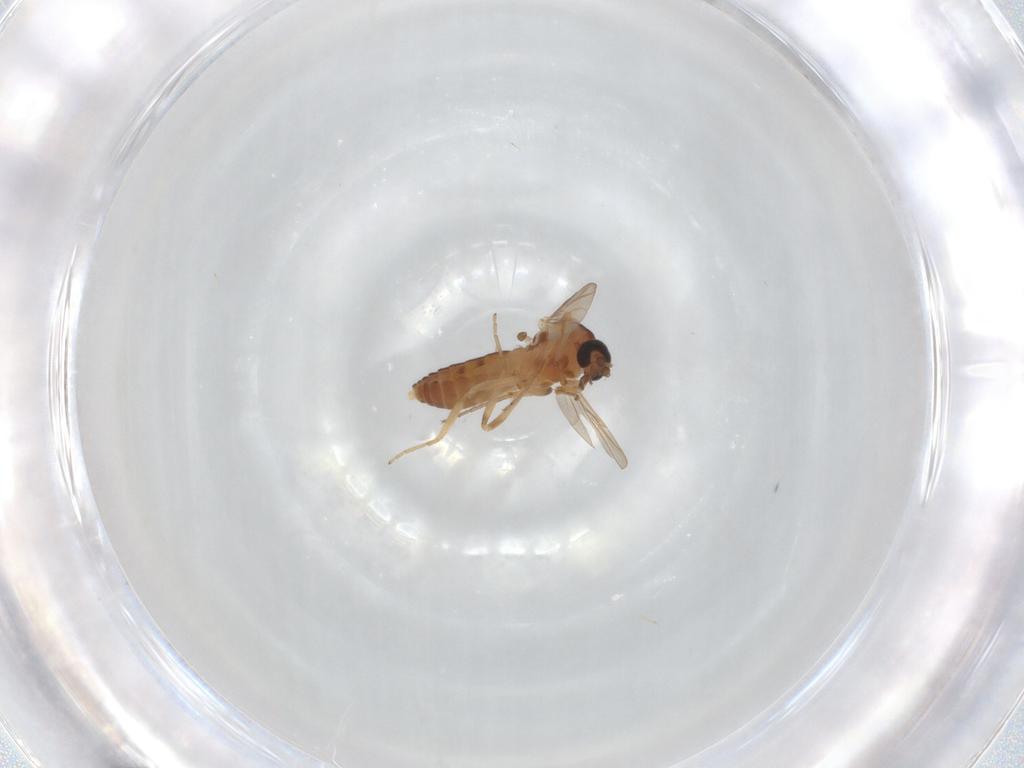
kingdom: Animalia
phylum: Arthropoda
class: Insecta
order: Diptera
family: Ceratopogonidae
